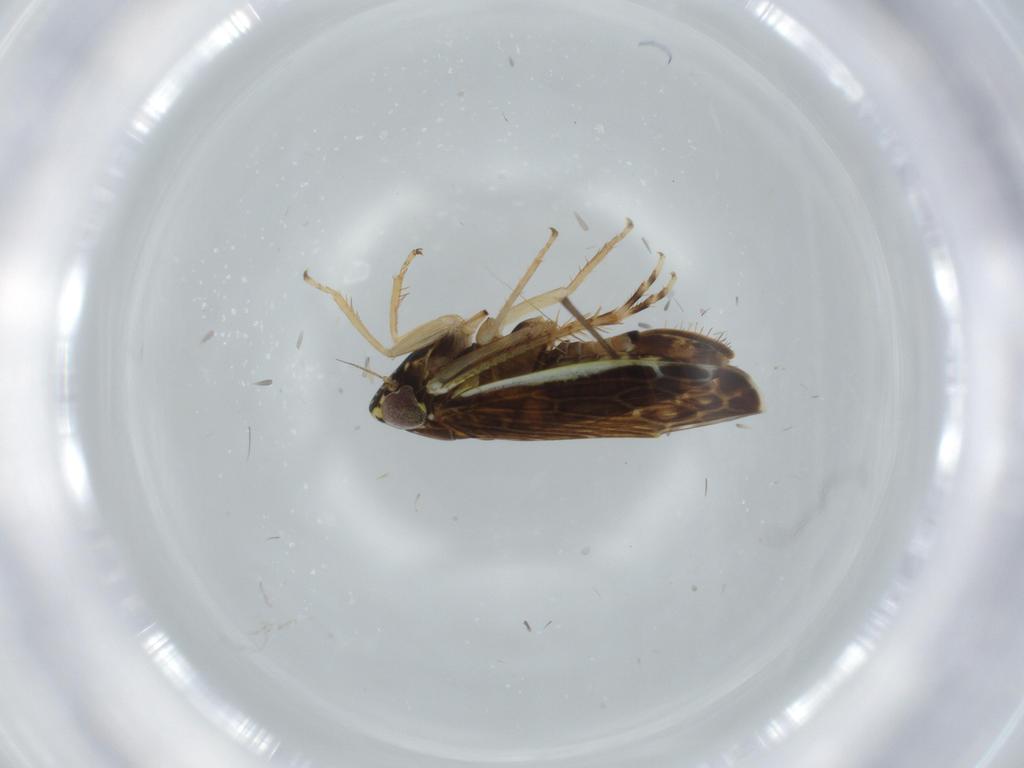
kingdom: Animalia
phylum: Arthropoda
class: Insecta
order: Hemiptera
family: Cicadellidae
